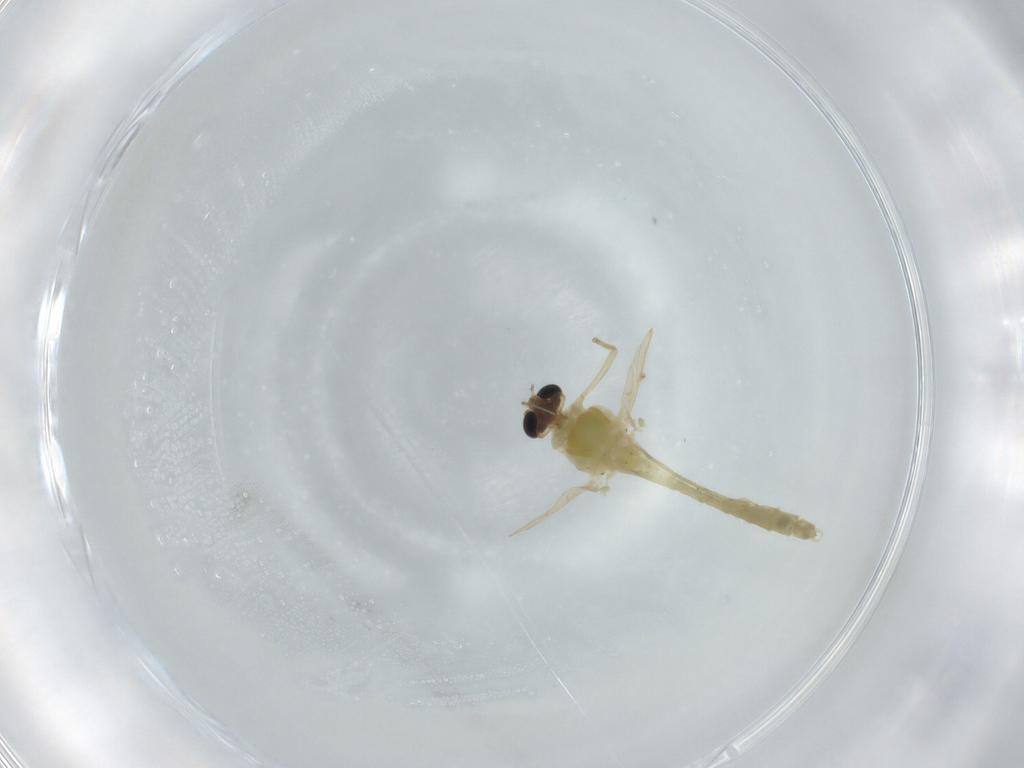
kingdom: Animalia
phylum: Arthropoda
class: Insecta
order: Diptera
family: Chironomidae
